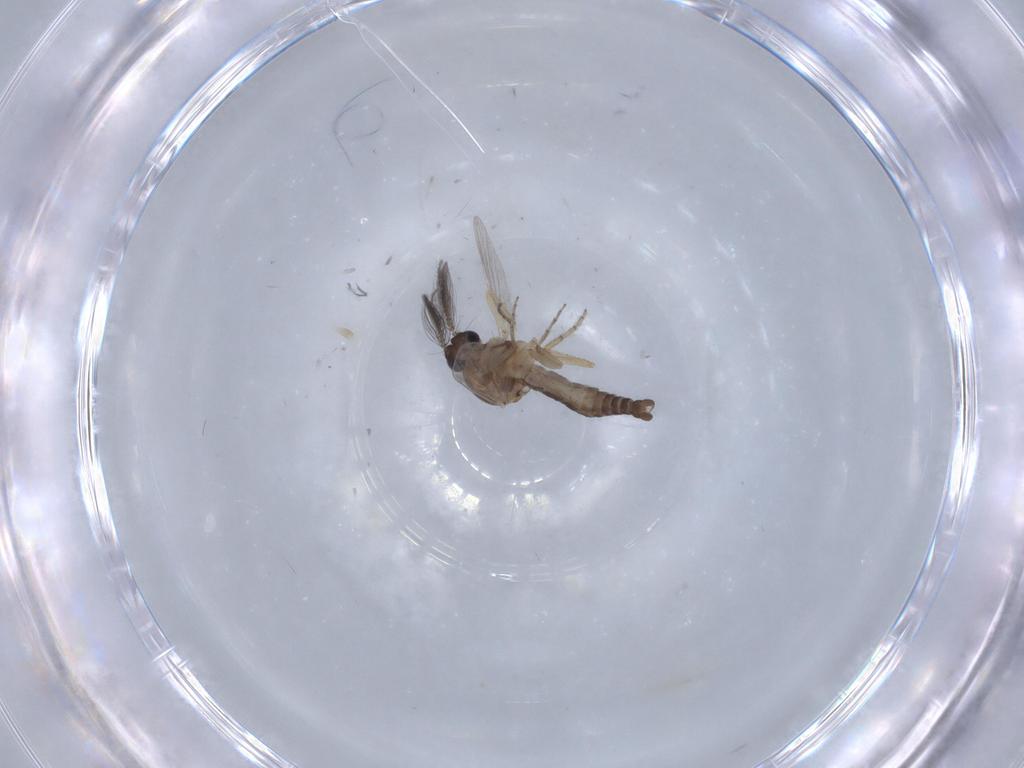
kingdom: Animalia
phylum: Arthropoda
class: Insecta
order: Diptera
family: Ceratopogonidae
